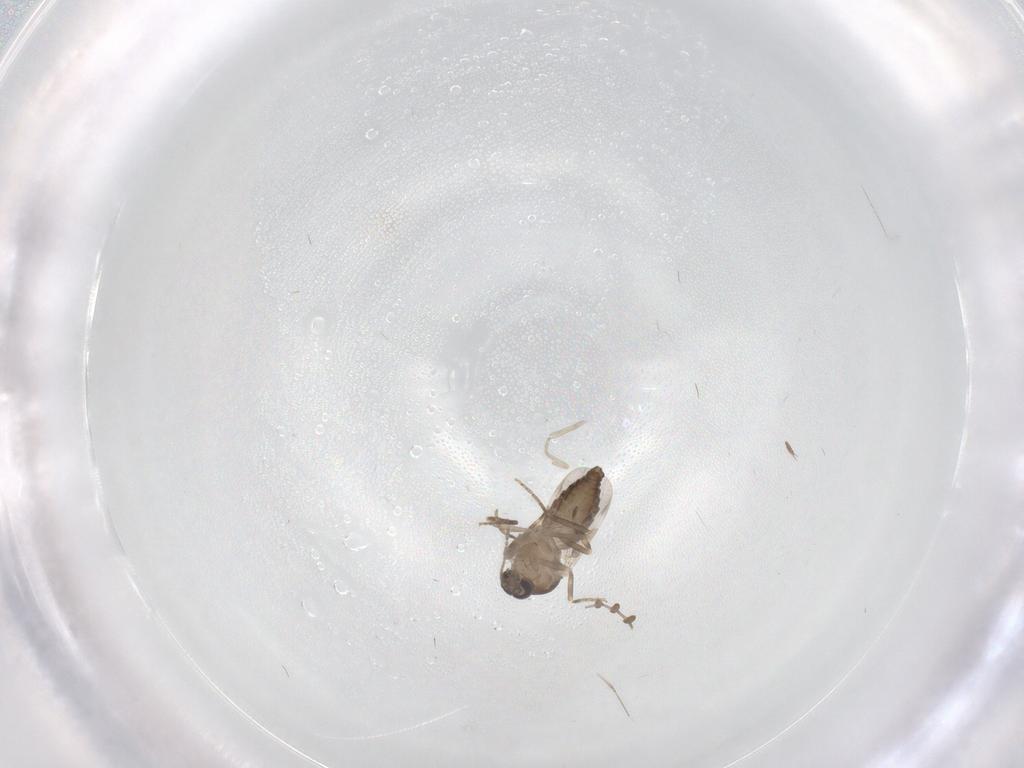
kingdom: Animalia
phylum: Arthropoda
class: Insecta
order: Diptera
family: Ceratopogonidae
